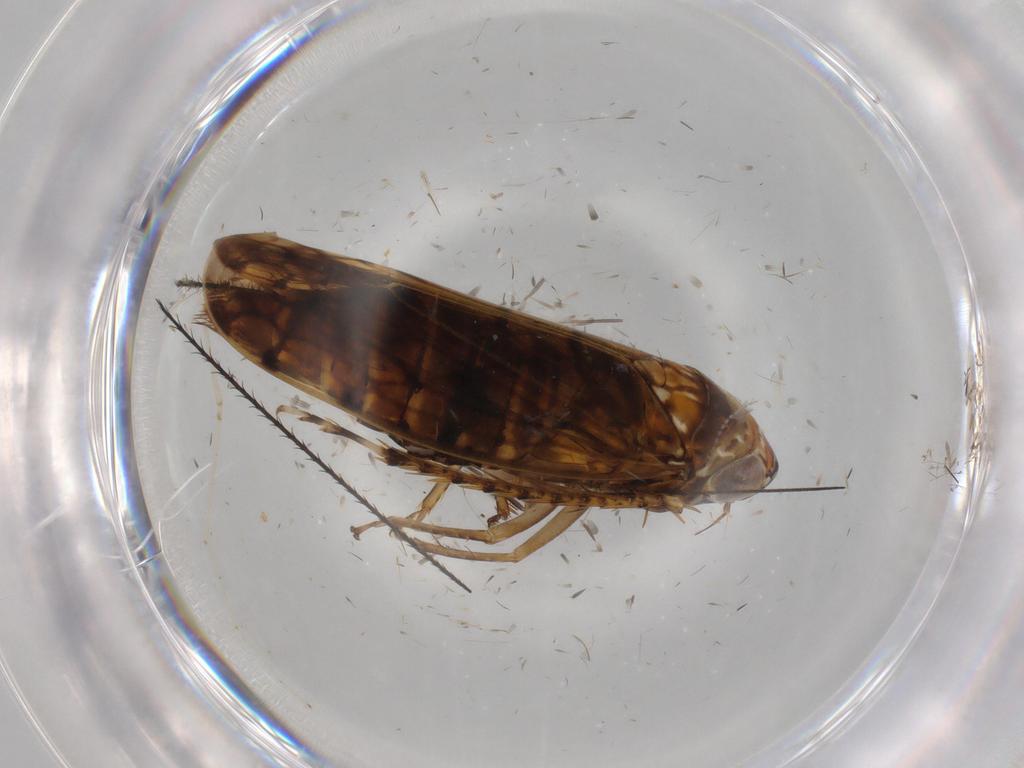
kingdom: Animalia
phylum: Arthropoda
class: Insecta
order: Hemiptera
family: Cicadellidae
